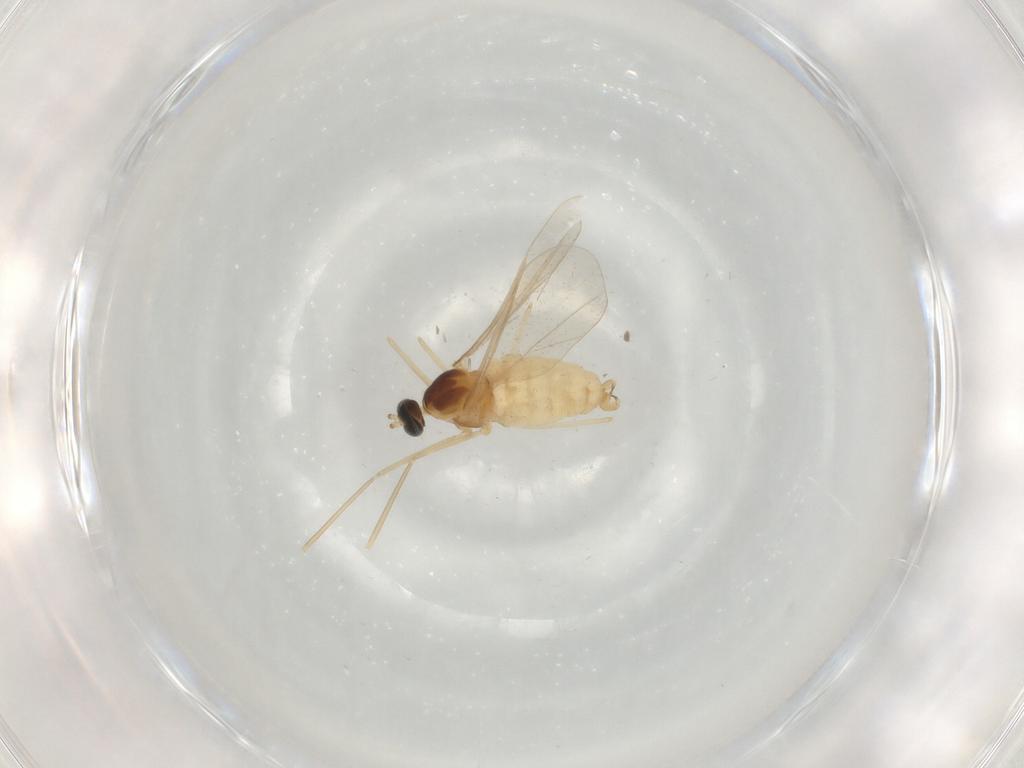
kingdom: Animalia
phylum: Arthropoda
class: Insecta
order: Diptera
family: Cecidomyiidae
